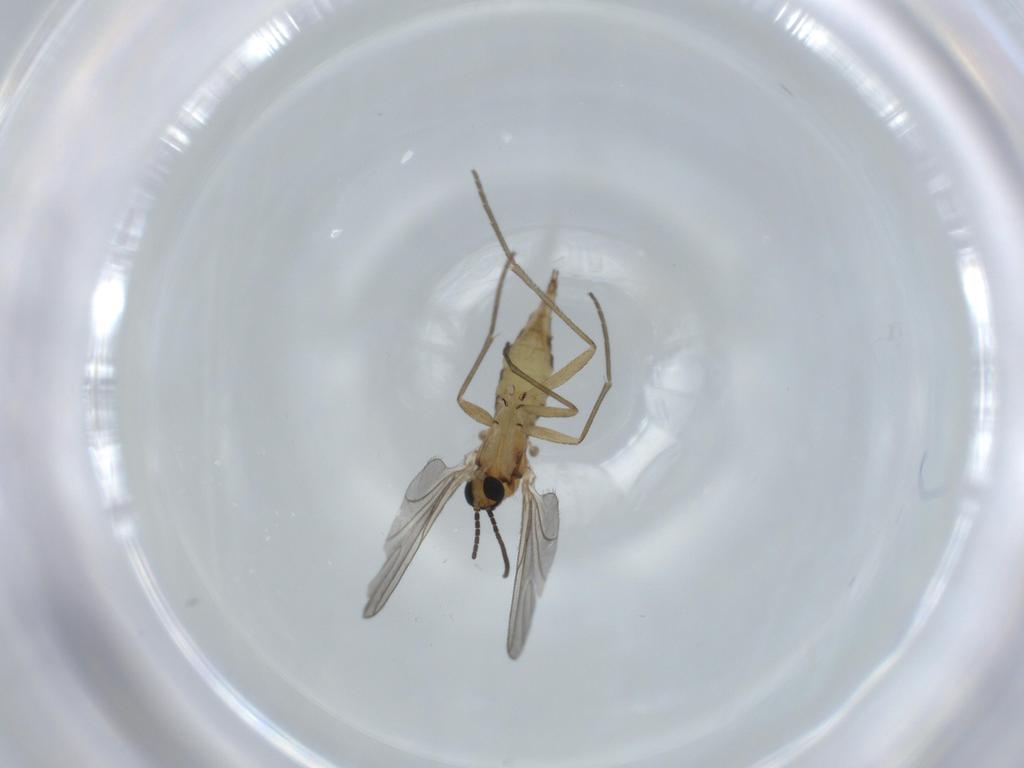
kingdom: Animalia
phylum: Arthropoda
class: Insecta
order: Diptera
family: Sciaridae
